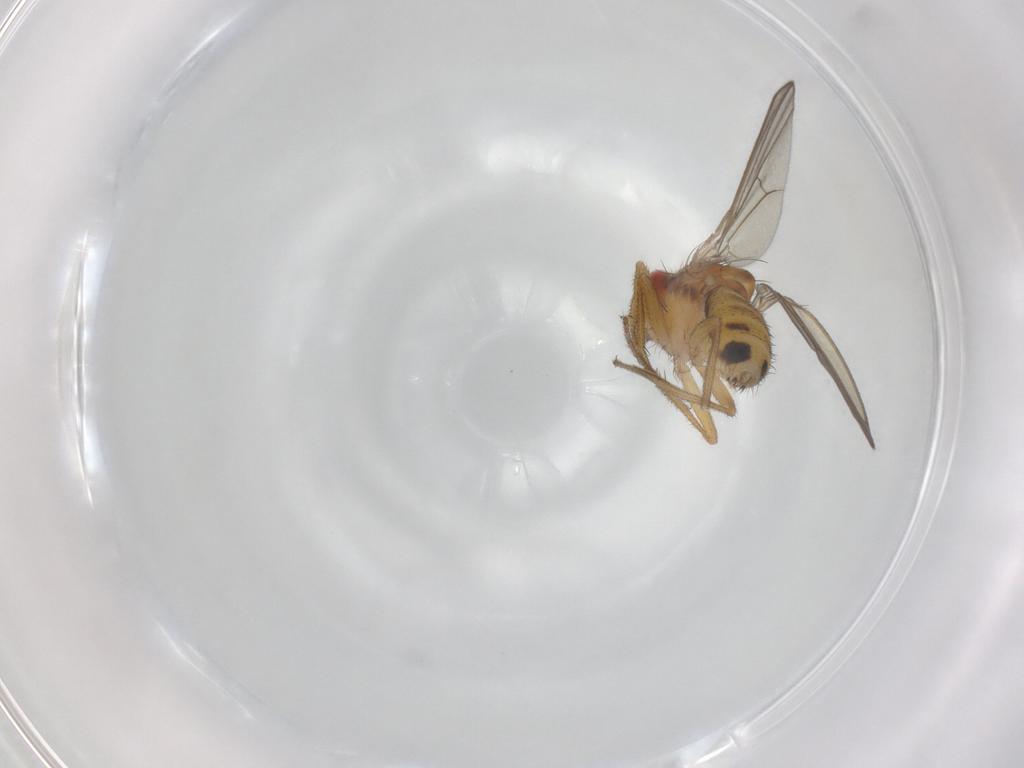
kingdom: Animalia
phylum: Arthropoda
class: Insecta
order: Diptera
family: Drosophilidae
